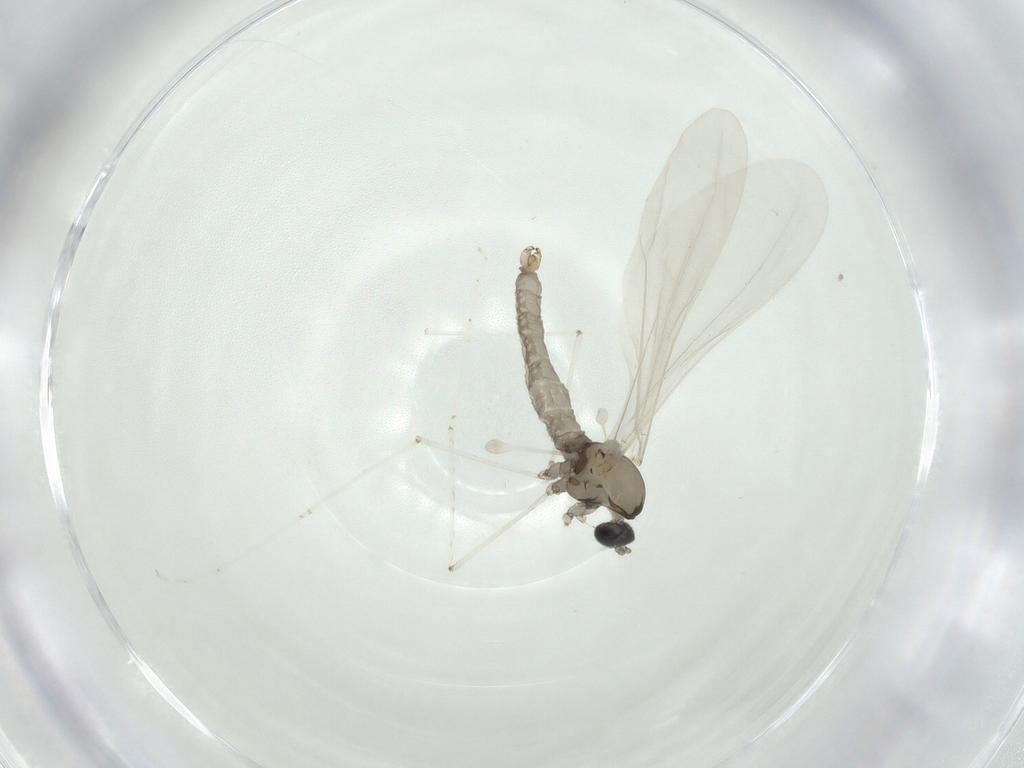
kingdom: Animalia
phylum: Arthropoda
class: Insecta
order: Diptera
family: Cecidomyiidae
